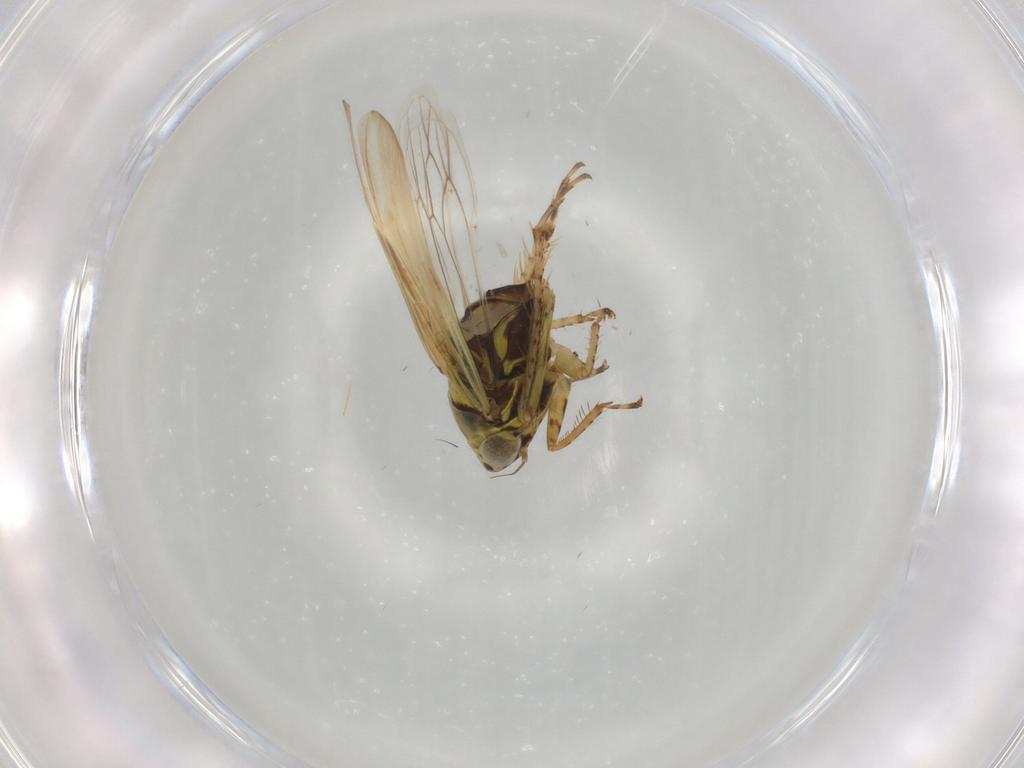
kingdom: Animalia
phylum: Arthropoda
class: Insecta
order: Hemiptera
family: Cicadellidae
